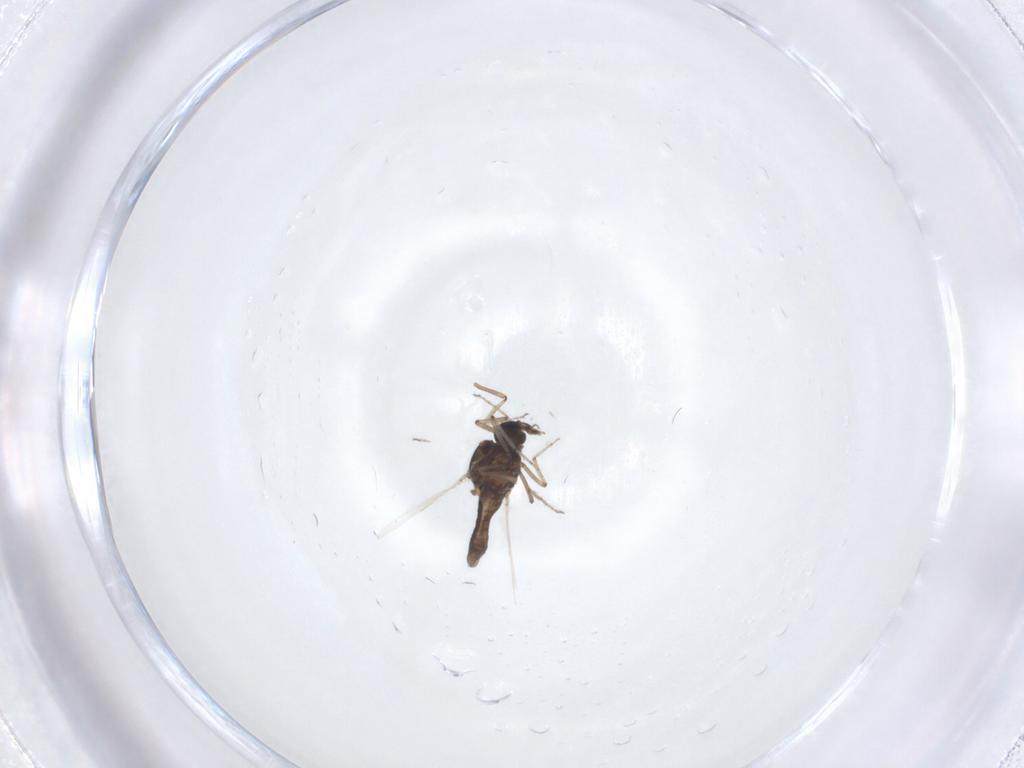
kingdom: Animalia
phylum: Arthropoda
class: Insecta
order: Diptera
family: Ceratopogonidae
